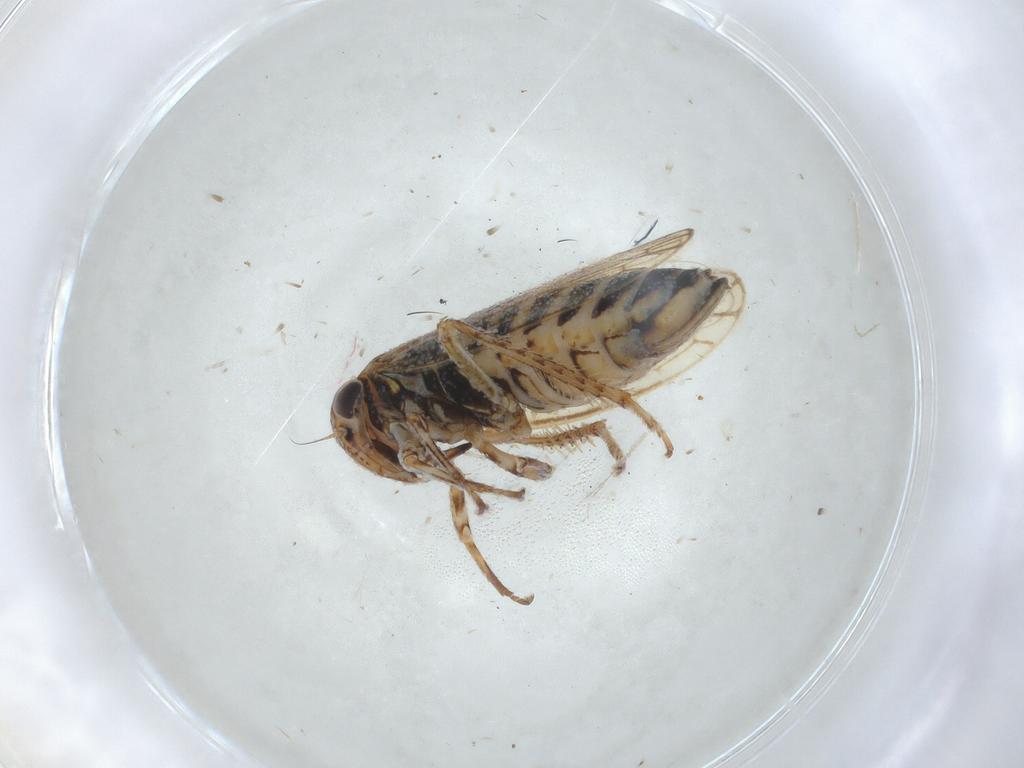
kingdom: Animalia
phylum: Arthropoda
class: Insecta
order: Hemiptera
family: Cicadellidae
